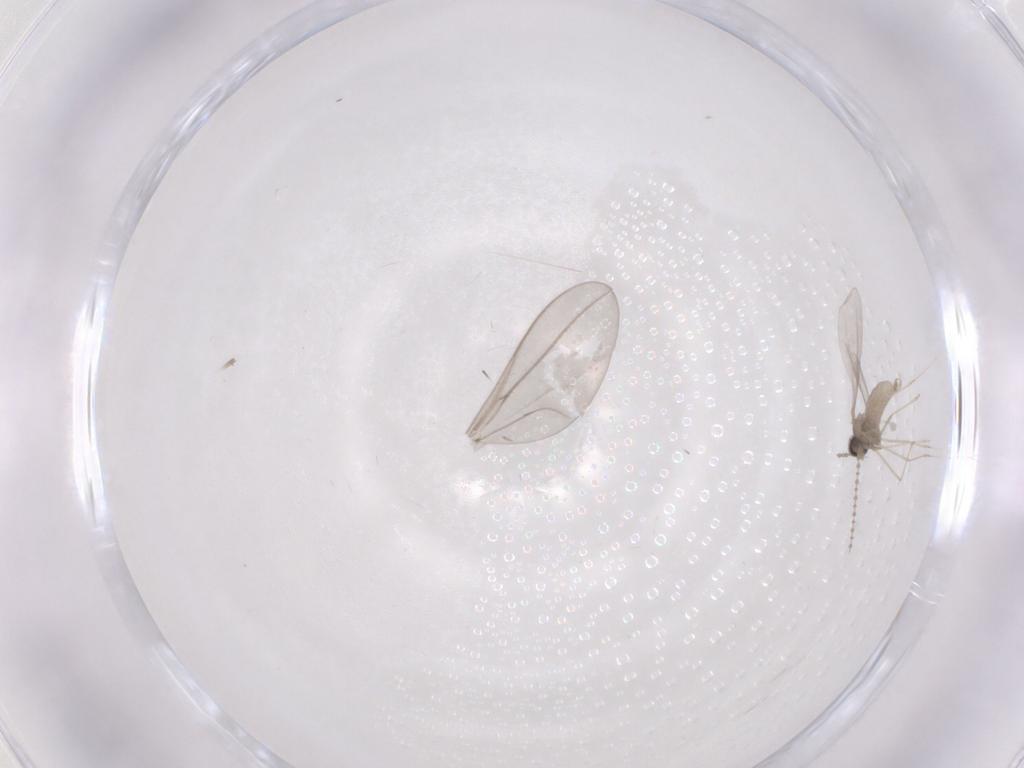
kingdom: Animalia
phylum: Arthropoda
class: Insecta
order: Diptera
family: Cecidomyiidae
